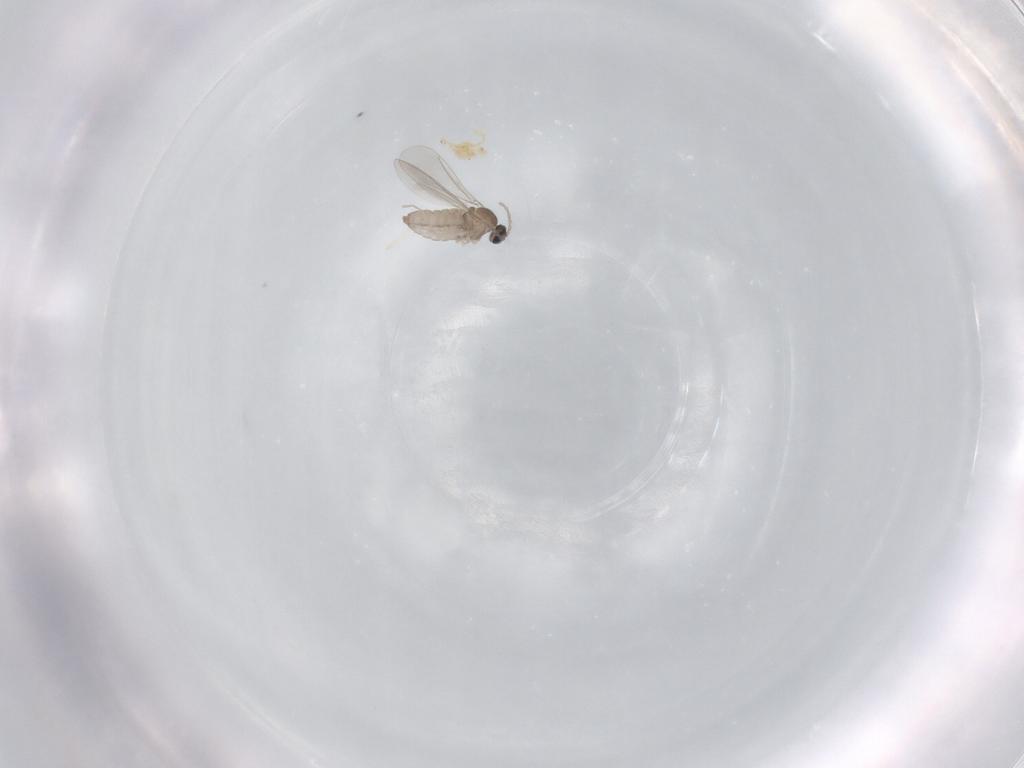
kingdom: Animalia
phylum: Arthropoda
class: Insecta
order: Diptera
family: Cecidomyiidae
